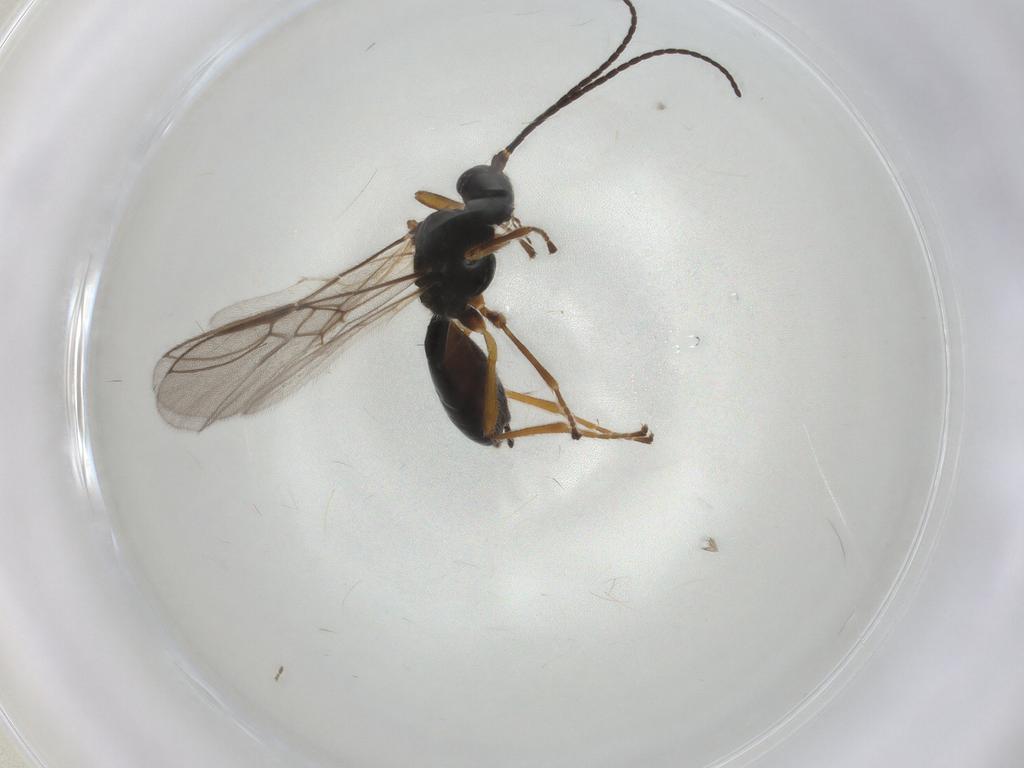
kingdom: Animalia
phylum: Arthropoda
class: Insecta
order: Hymenoptera
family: Braconidae
